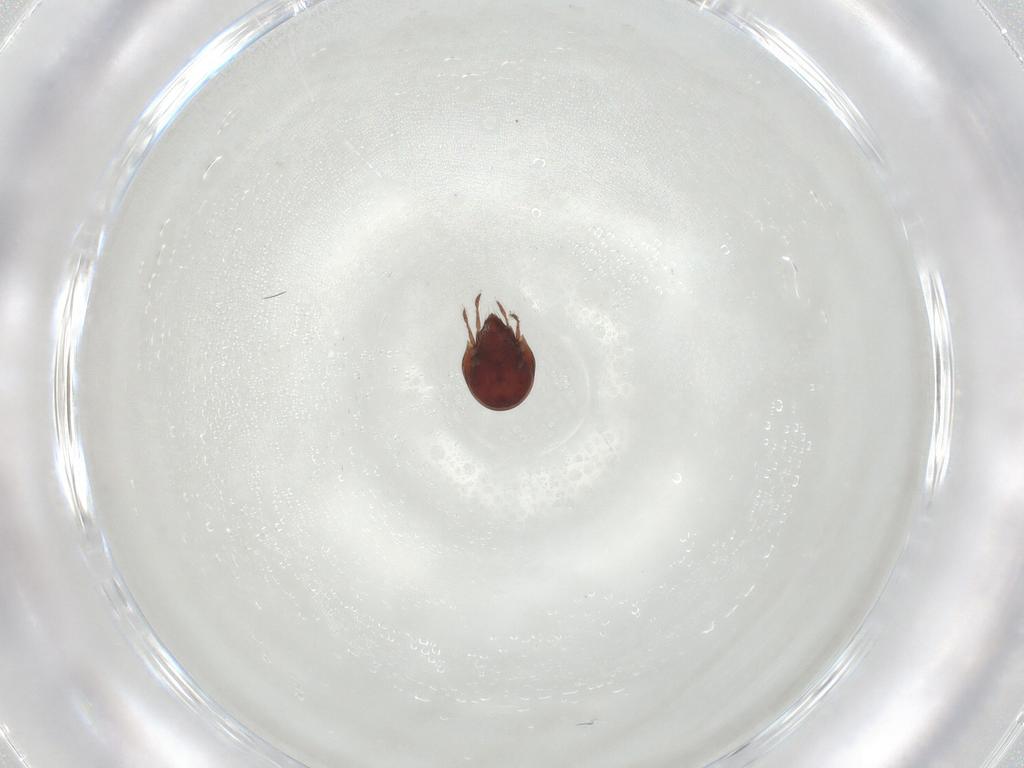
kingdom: Animalia
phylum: Arthropoda
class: Arachnida
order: Sarcoptiformes
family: Ceratozetidae
